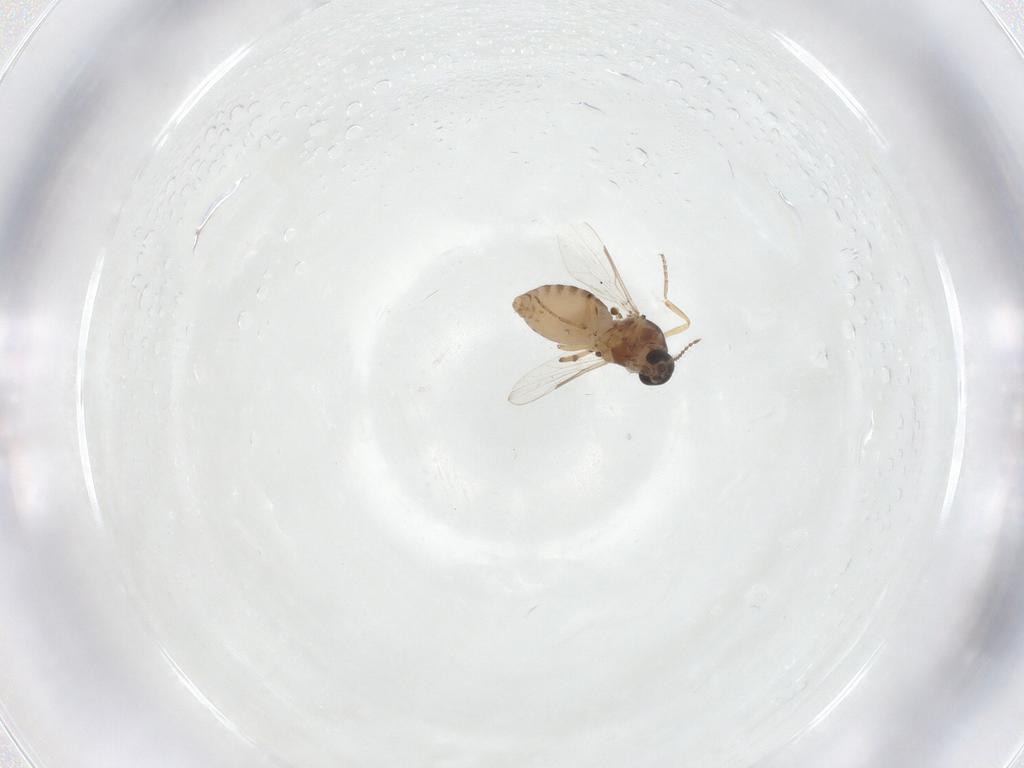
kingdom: Animalia
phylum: Arthropoda
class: Insecta
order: Diptera
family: Ceratopogonidae
